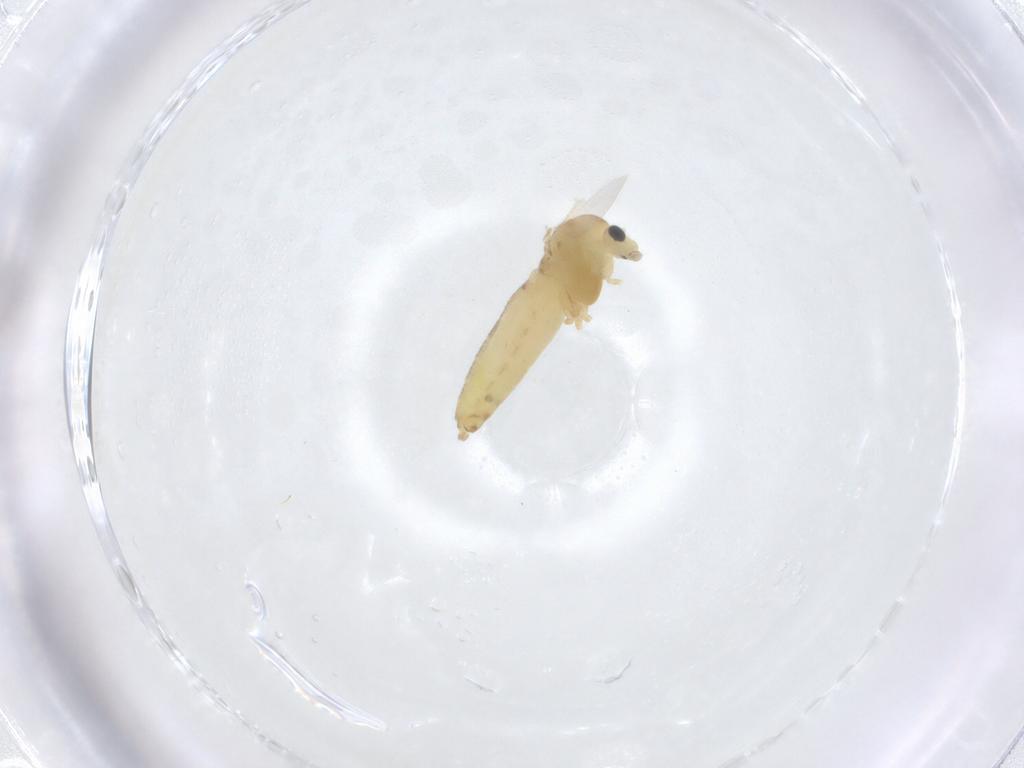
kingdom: Animalia
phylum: Arthropoda
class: Insecta
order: Diptera
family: Chironomidae
